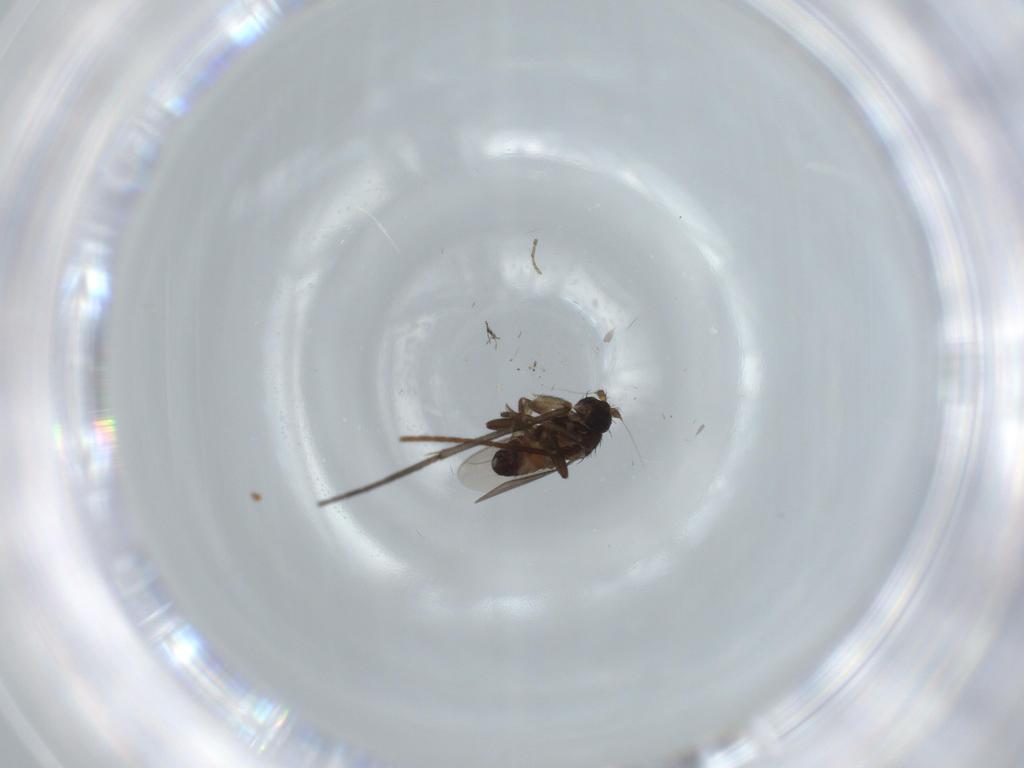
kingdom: Animalia
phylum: Arthropoda
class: Insecta
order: Diptera
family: Sphaeroceridae
